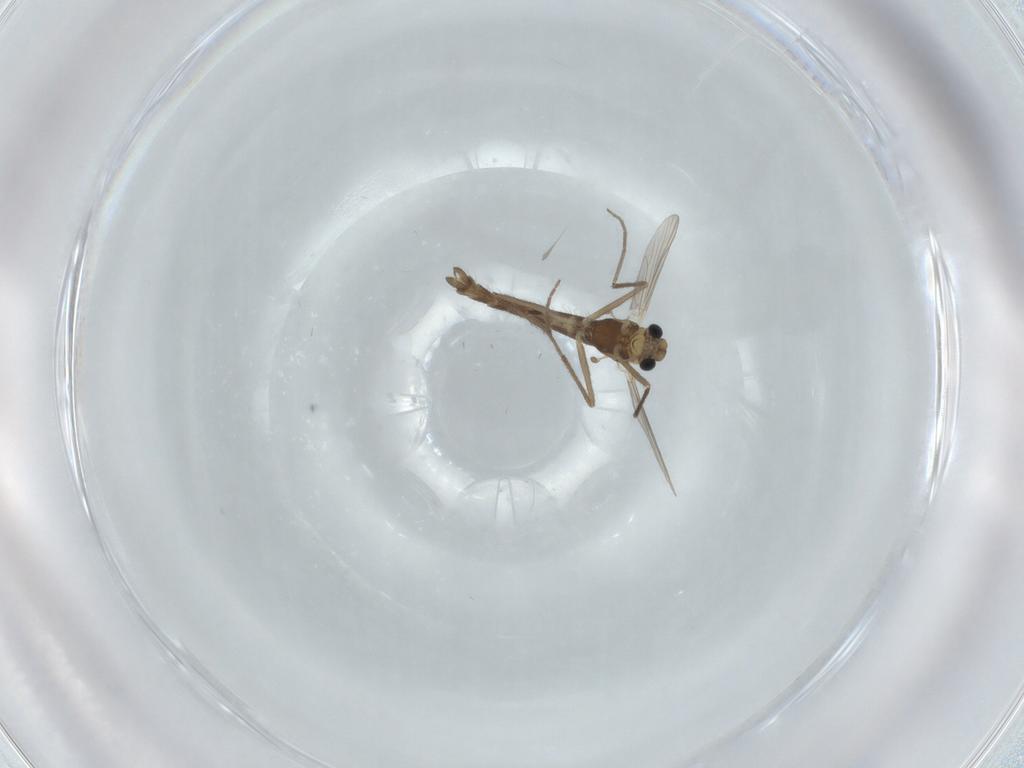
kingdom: Animalia
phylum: Arthropoda
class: Insecta
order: Diptera
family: Chironomidae
